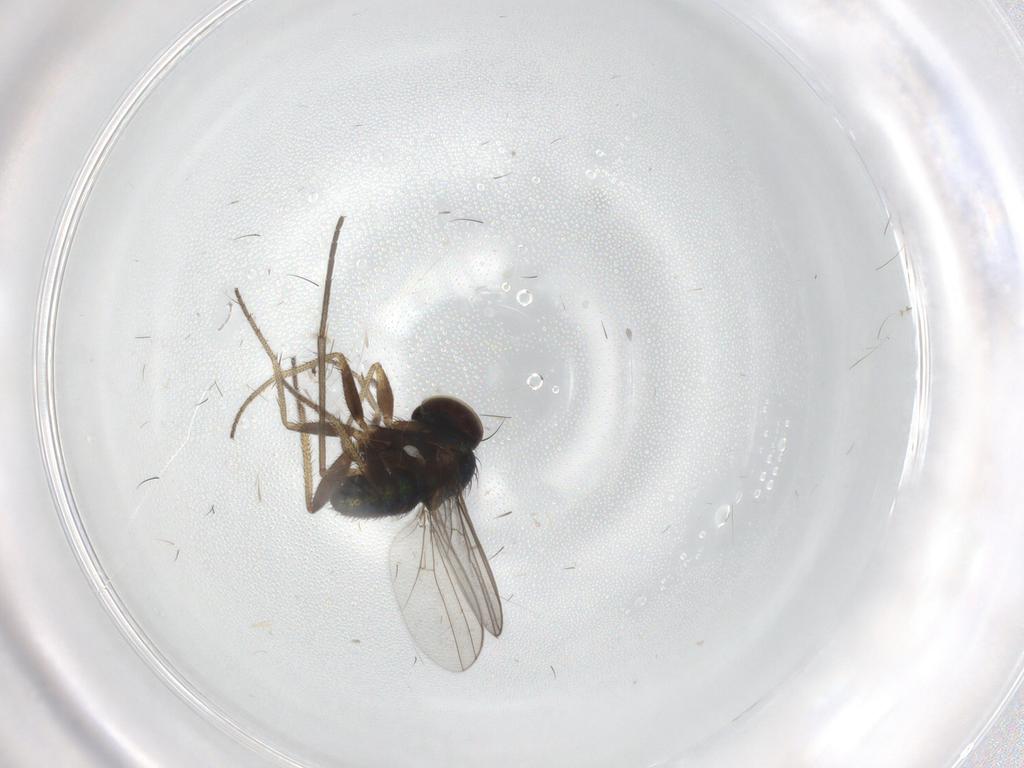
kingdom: Animalia
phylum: Arthropoda
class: Insecta
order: Diptera
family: Sciaridae
